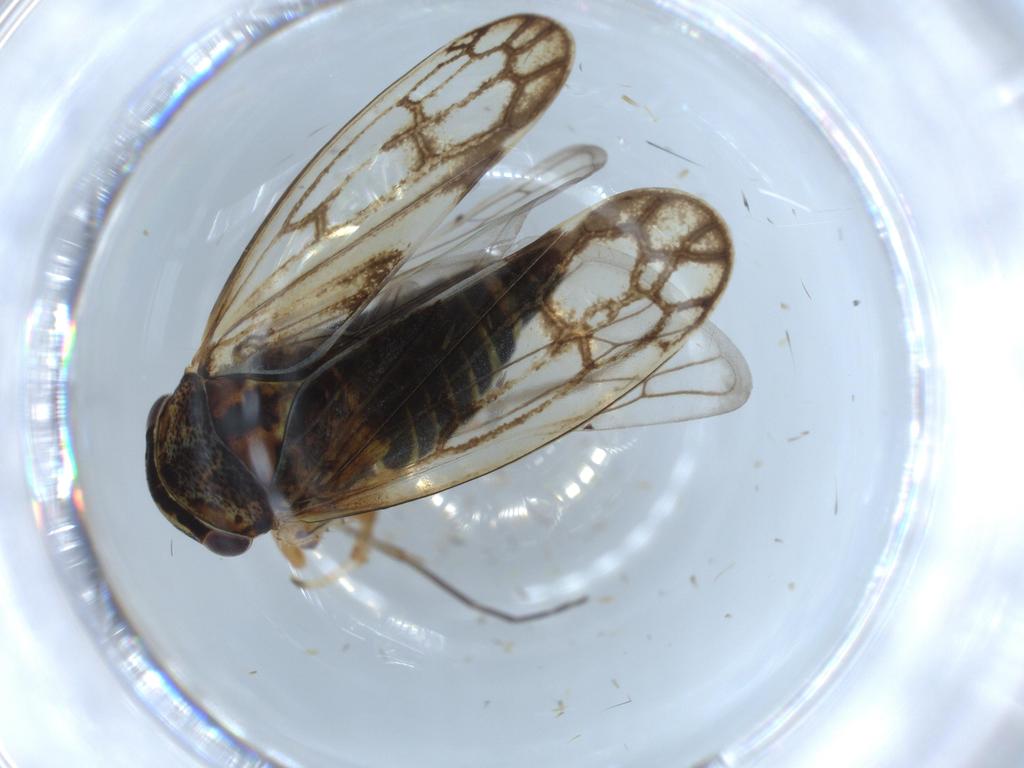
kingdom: Animalia
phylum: Arthropoda
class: Insecta
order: Hemiptera
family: Cicadellidae
